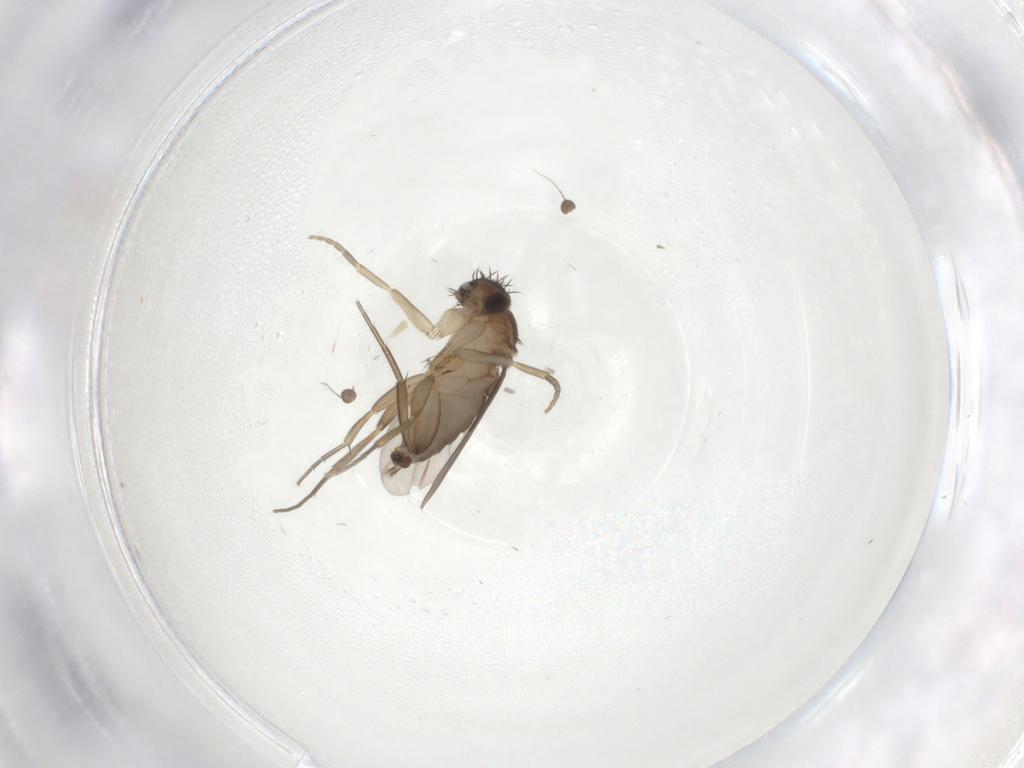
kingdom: Animalia
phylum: Arthropoda
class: Insecta
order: Diptera
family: Phoridae
